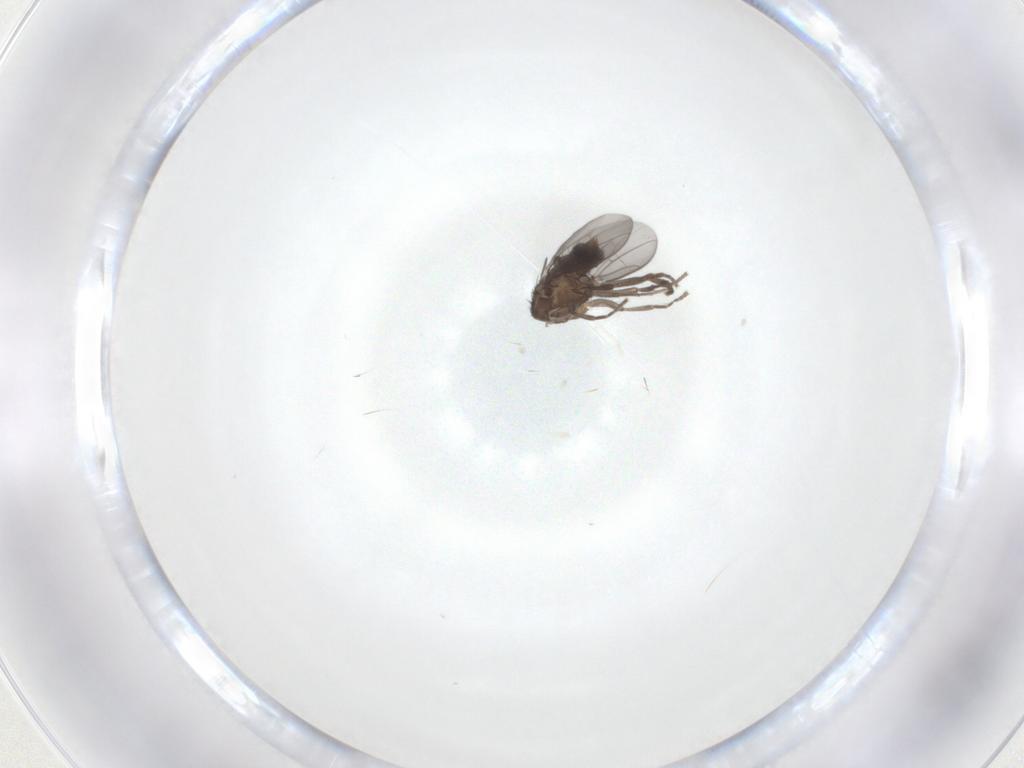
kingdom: Animalia
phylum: Arthropoda
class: Insecta
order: Diptera
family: Sphaeroceridae
